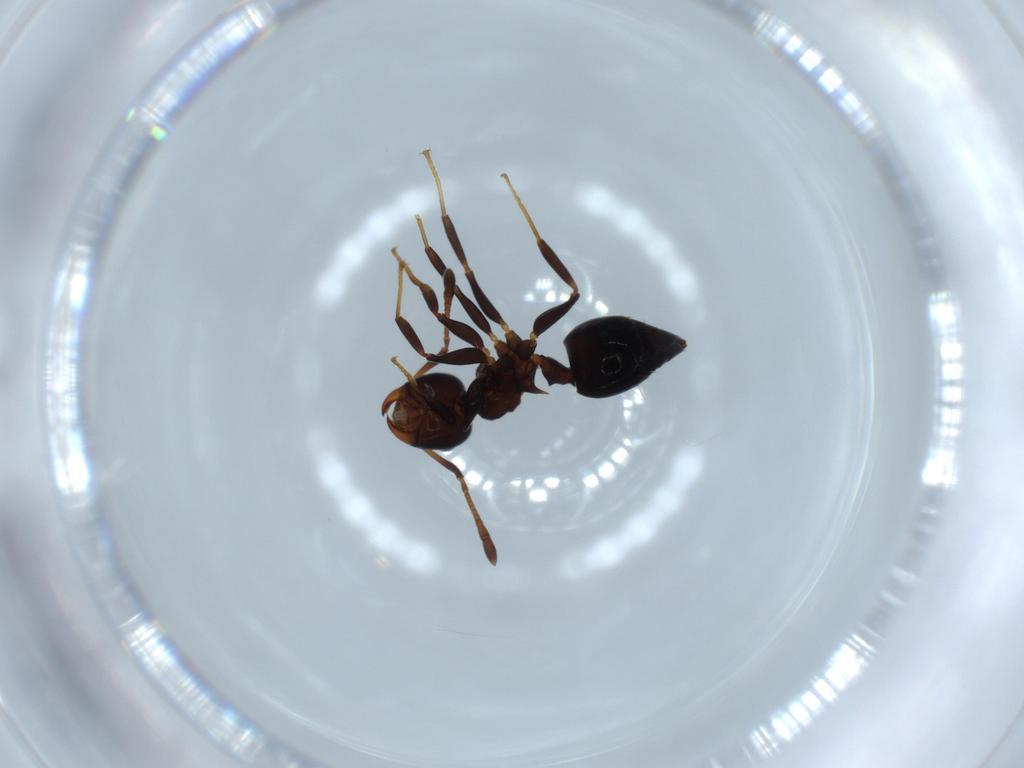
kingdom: Animalia
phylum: Arthropoda
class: Insecta
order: Hymenoptera
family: Formicidae
